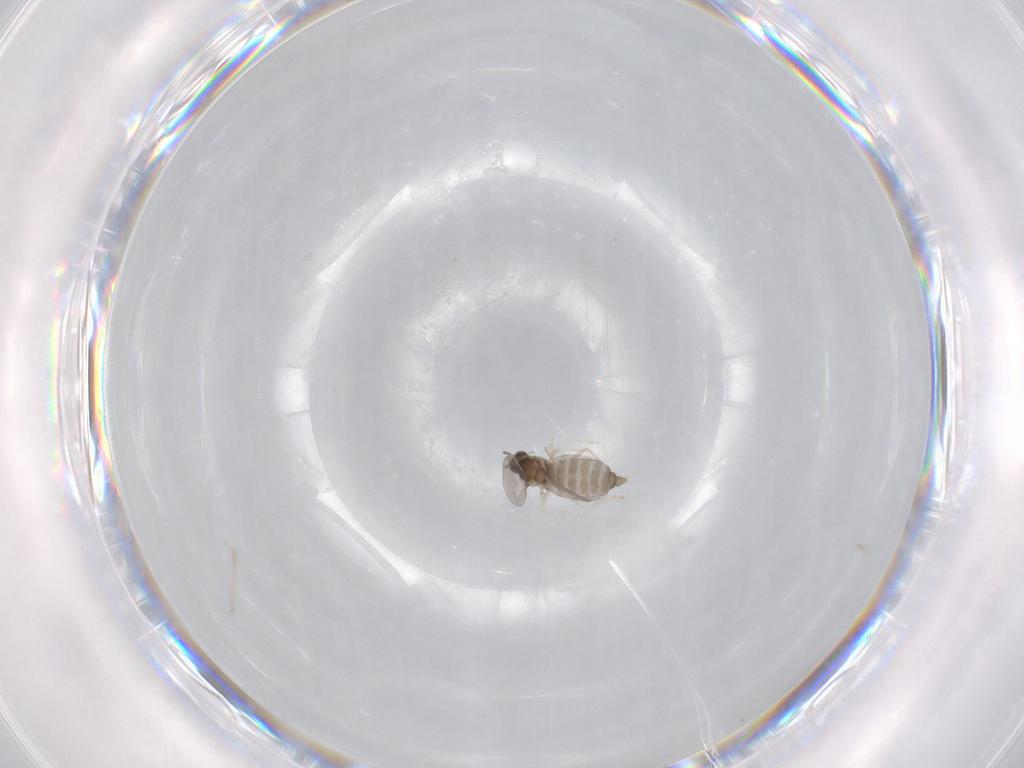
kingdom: Animalia
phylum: Arthropoda
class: Insecta
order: Diptera
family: Cecidomyiidae
